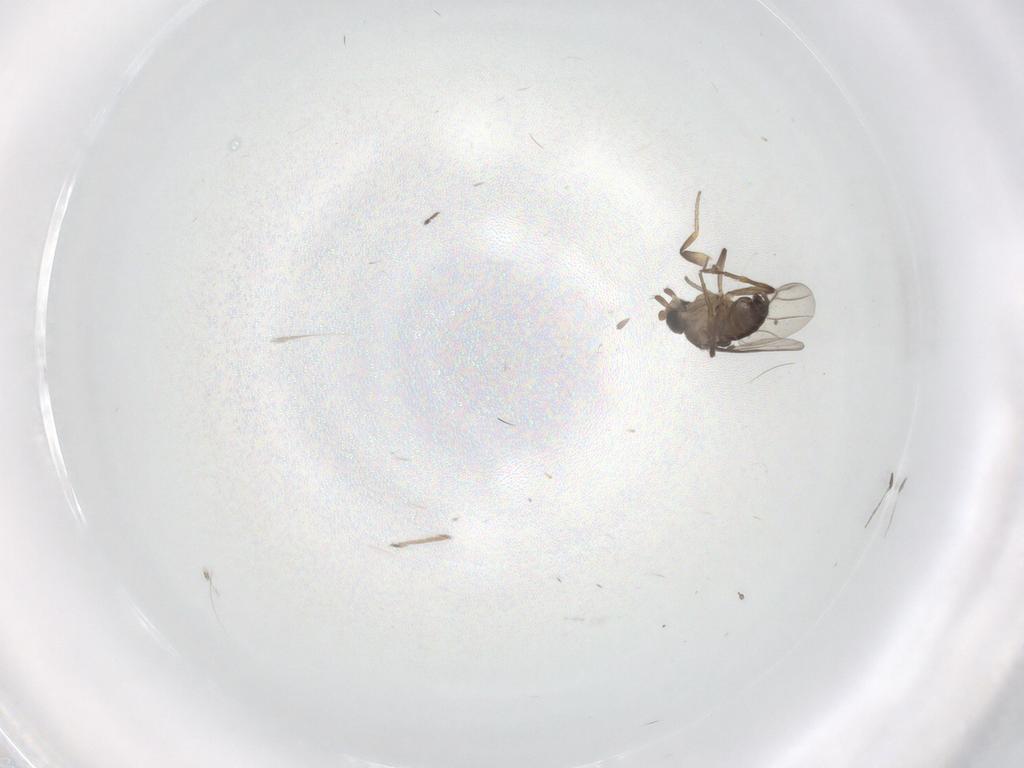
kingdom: Animalia
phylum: Arthropoda
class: Insecta
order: Diptera
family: Phoridae
